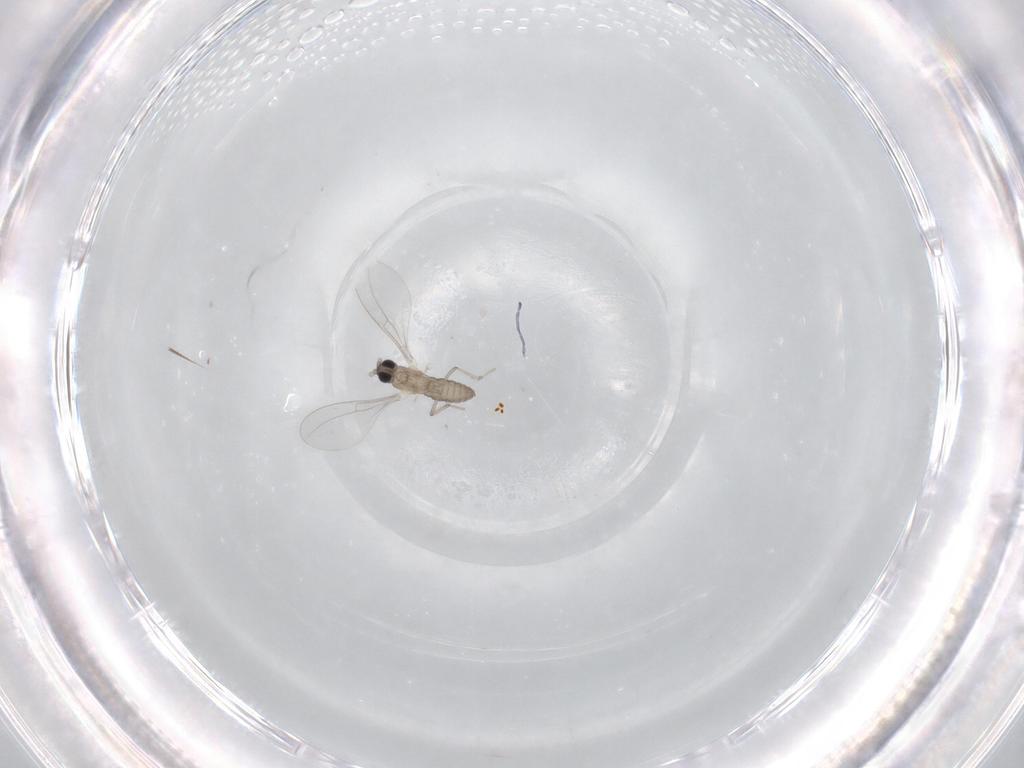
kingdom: Animalia
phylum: Arthropoda
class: Insecta
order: Diptera
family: Cecidomyiidae
